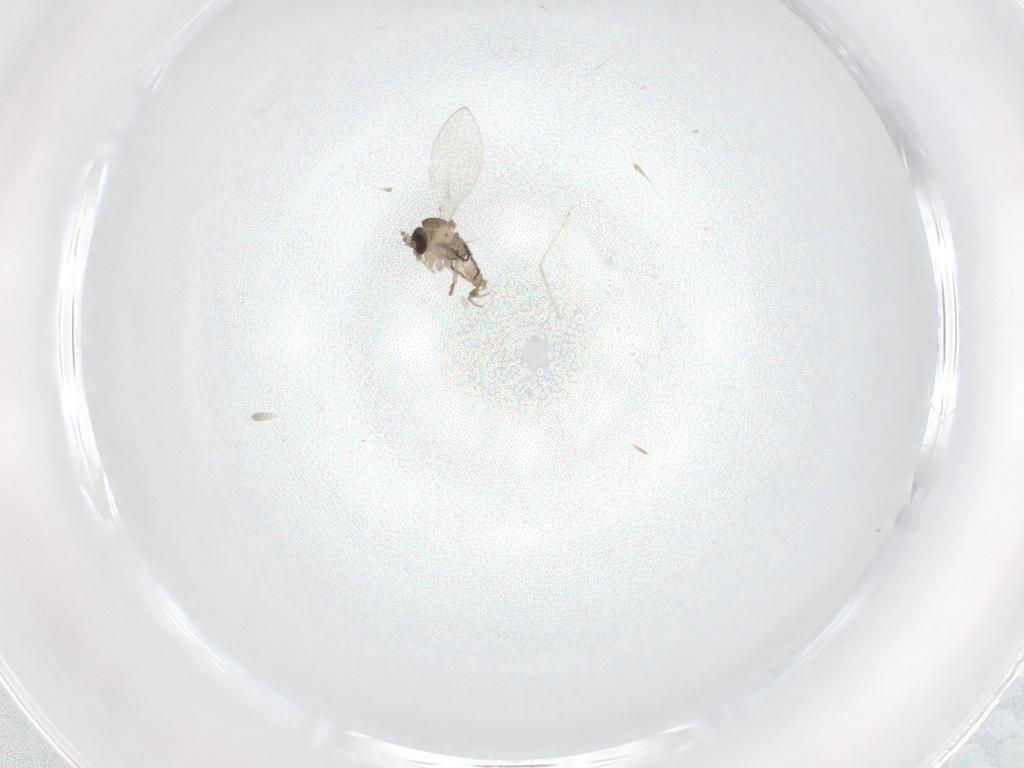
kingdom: Animalia
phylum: Arthropoda
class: Insecta
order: Diptera
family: Psychodidae
